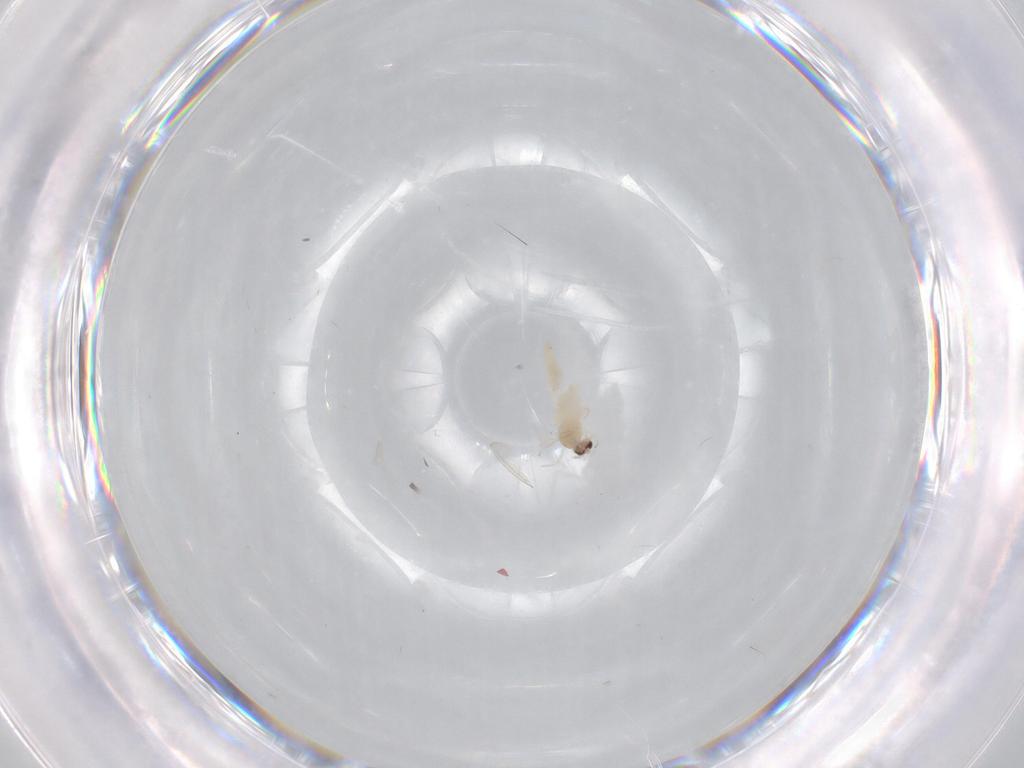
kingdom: Animalia
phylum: Arthropoda
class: Insecta
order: Diptera
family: Cecidomyiidae
